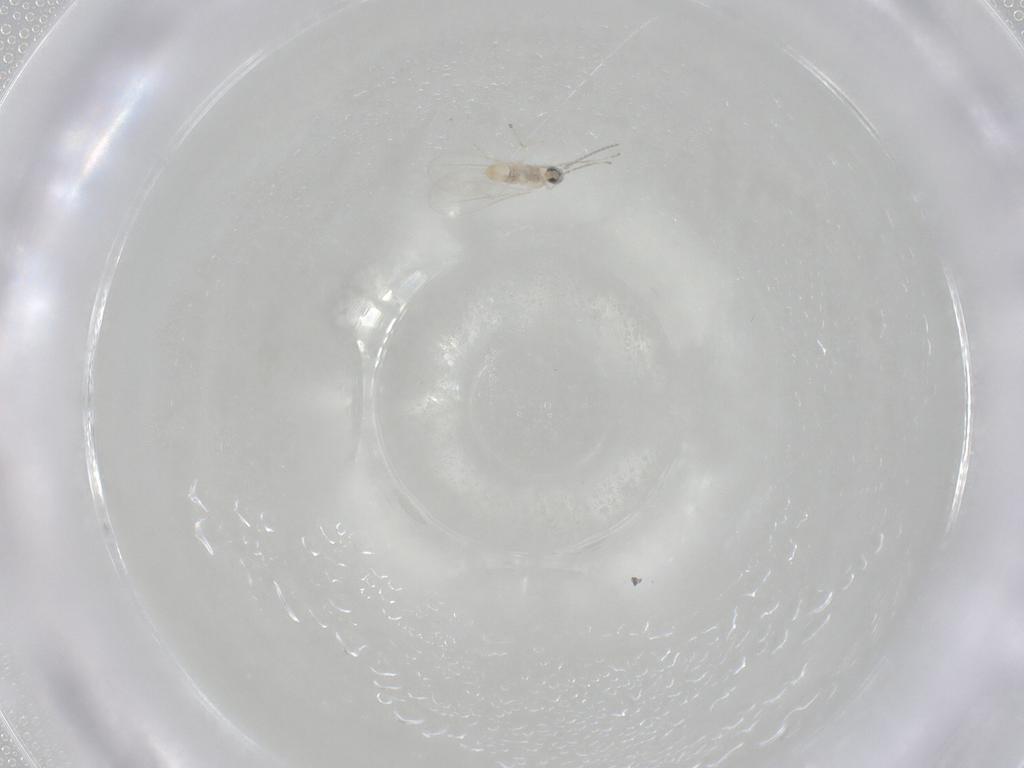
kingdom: Animalia
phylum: Arthropoda
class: Insecta
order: Diptera
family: Cecidomyiidae
